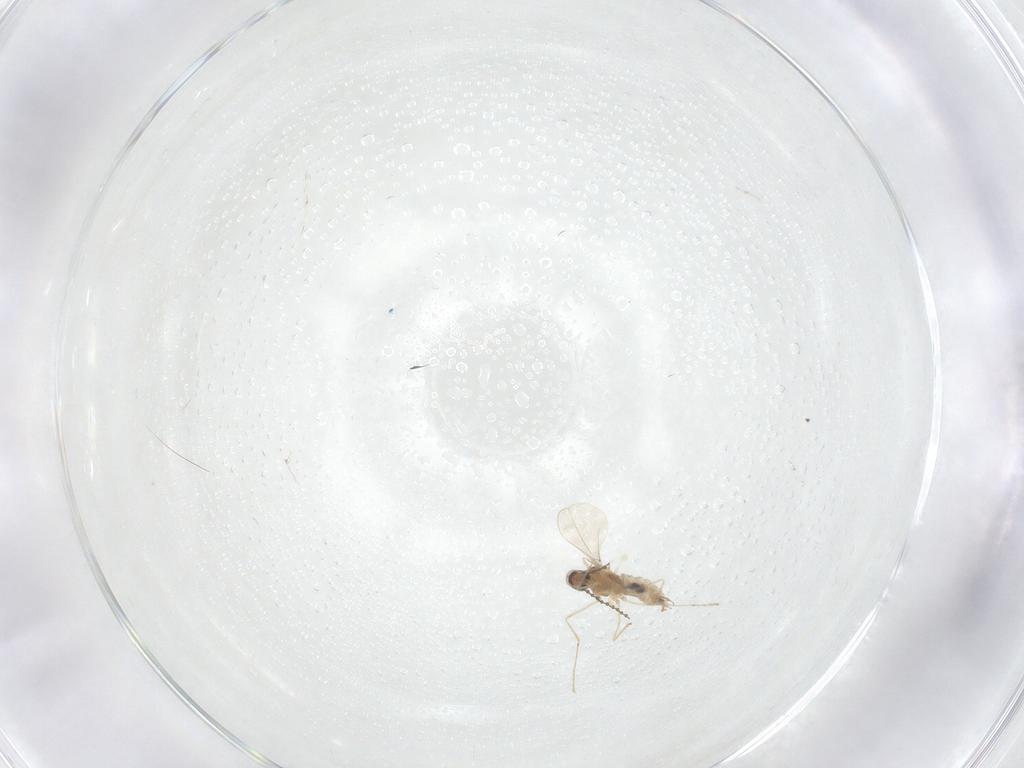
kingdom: Animalia
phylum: Arthropoda
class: Insecta
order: Diptera
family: Cecidomyiidae
